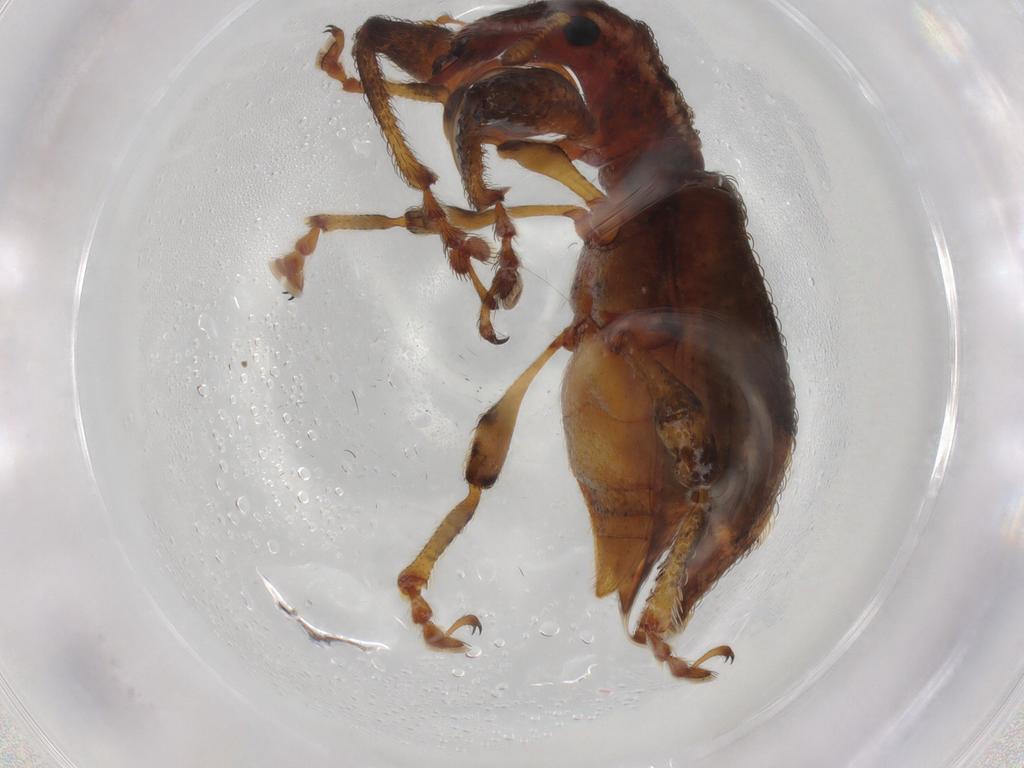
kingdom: Animalia
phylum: Arthropoda
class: Insecta
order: Coleoptera
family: Curculionidae
